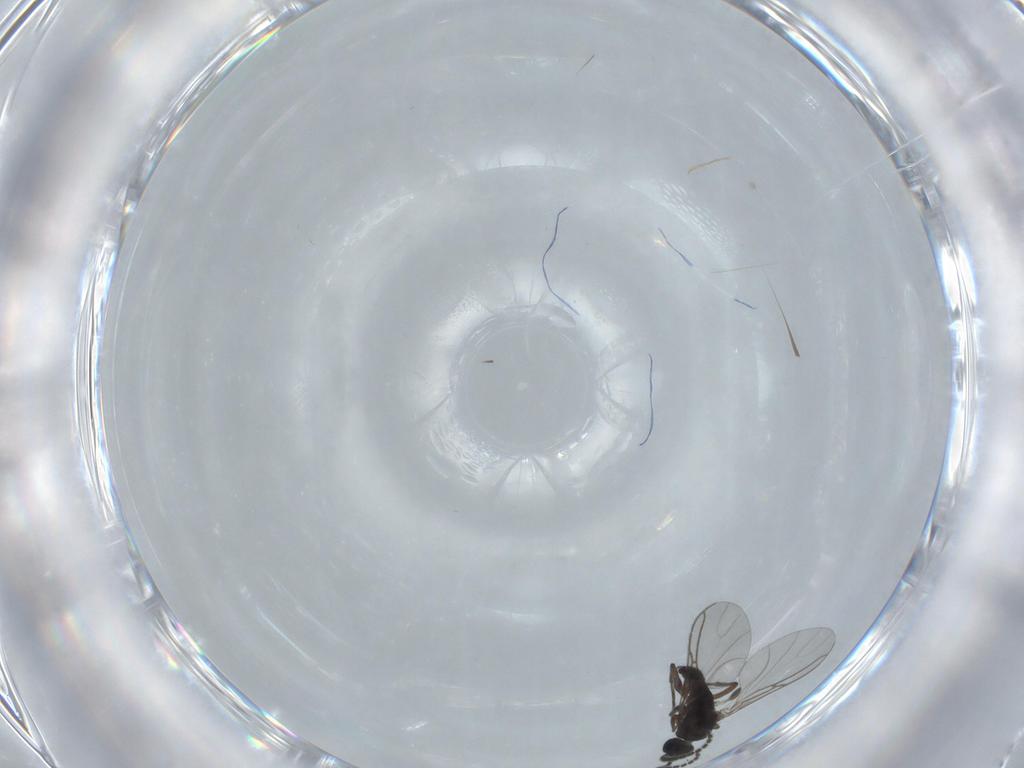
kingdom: Animalia
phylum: Arthropoda
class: Insecta
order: Diptera
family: Sciaridae
